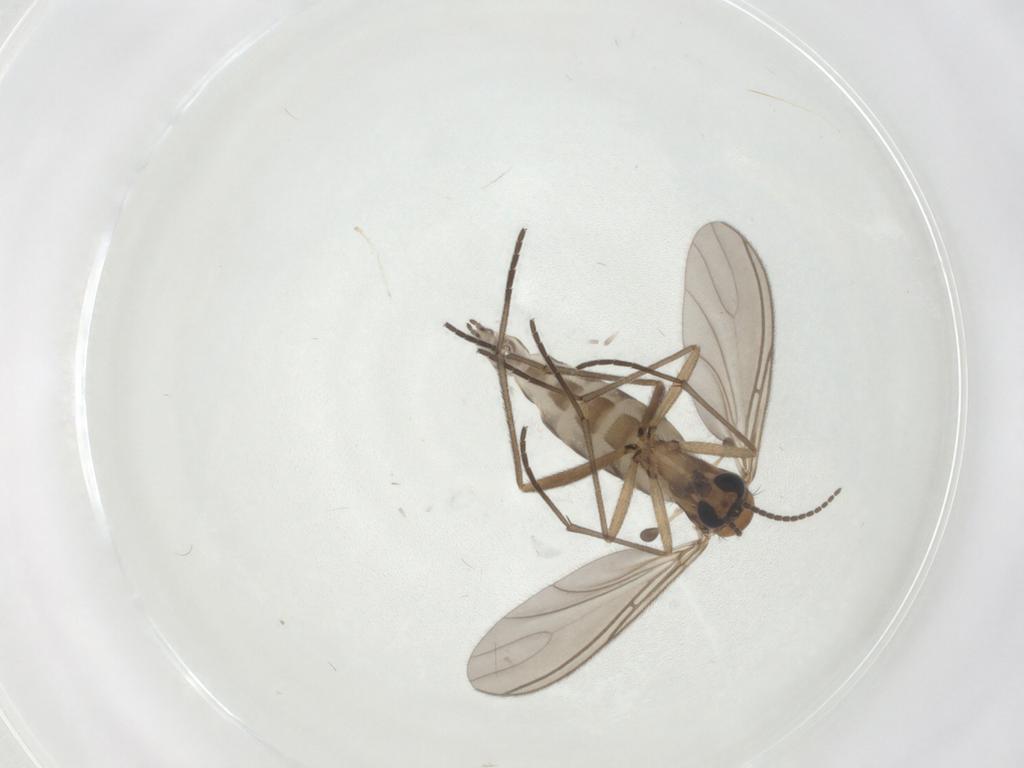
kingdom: Animalia
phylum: Arthropoda
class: Insecta
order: Diptera
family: Sciaridae
